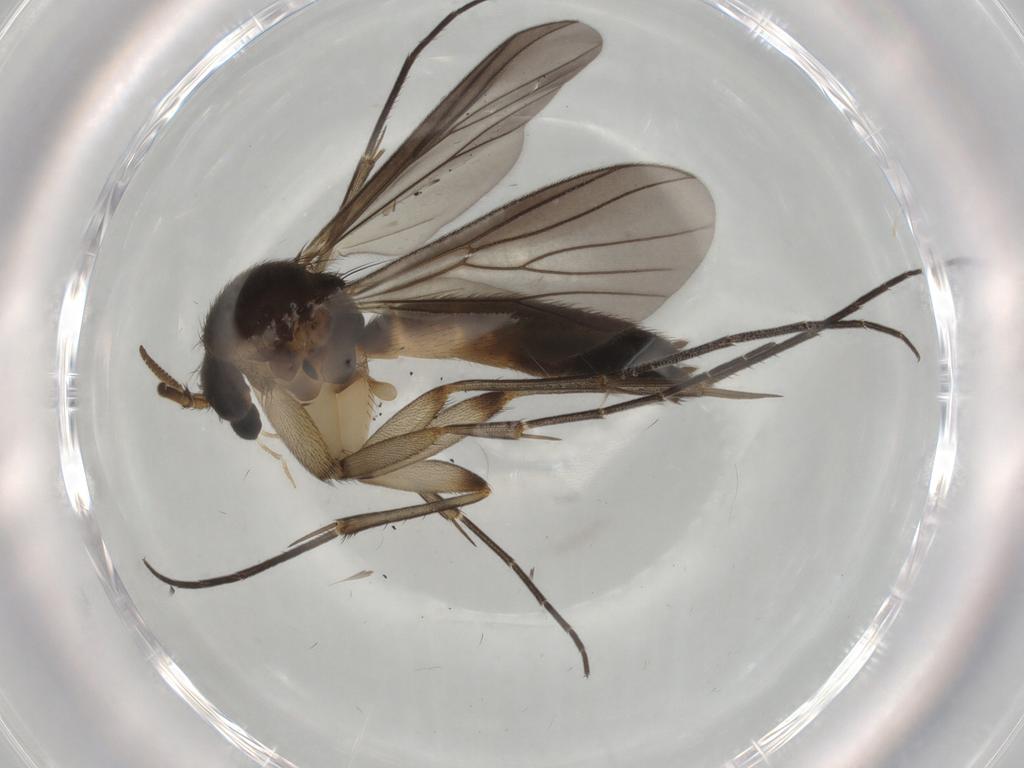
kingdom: Animalia
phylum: Arthropoda
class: Insecta
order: Diptera
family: Mycetophilidae
